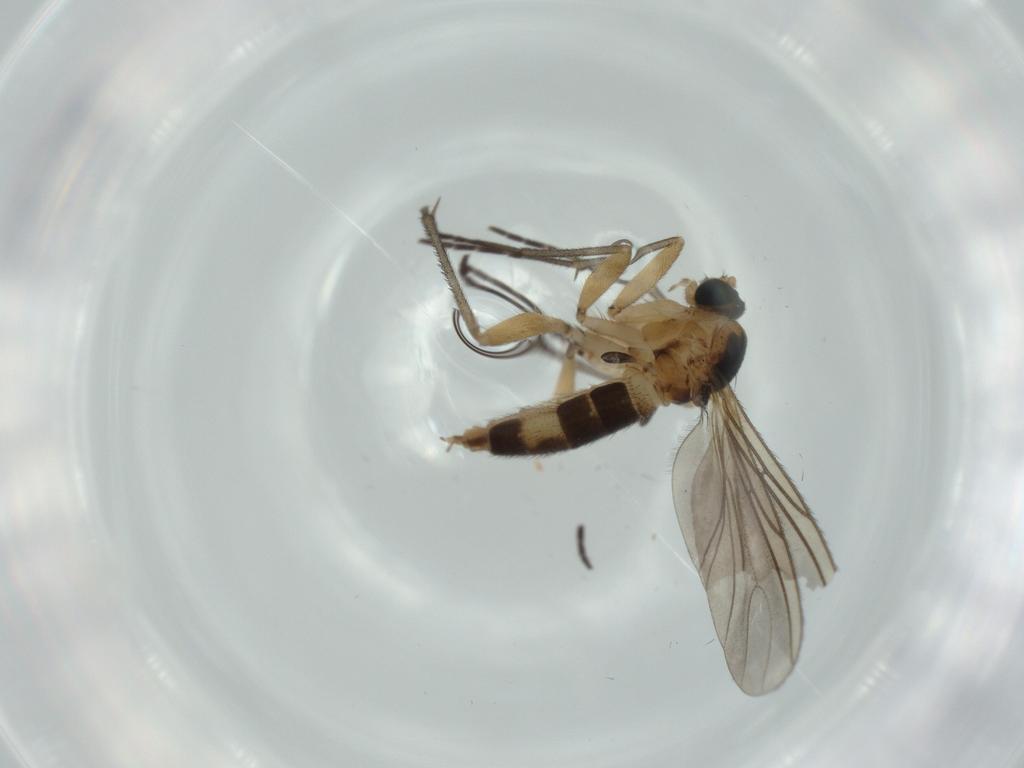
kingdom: Animalia
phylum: Arthropoda
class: Insecta
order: Diptera
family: Sciaridae
